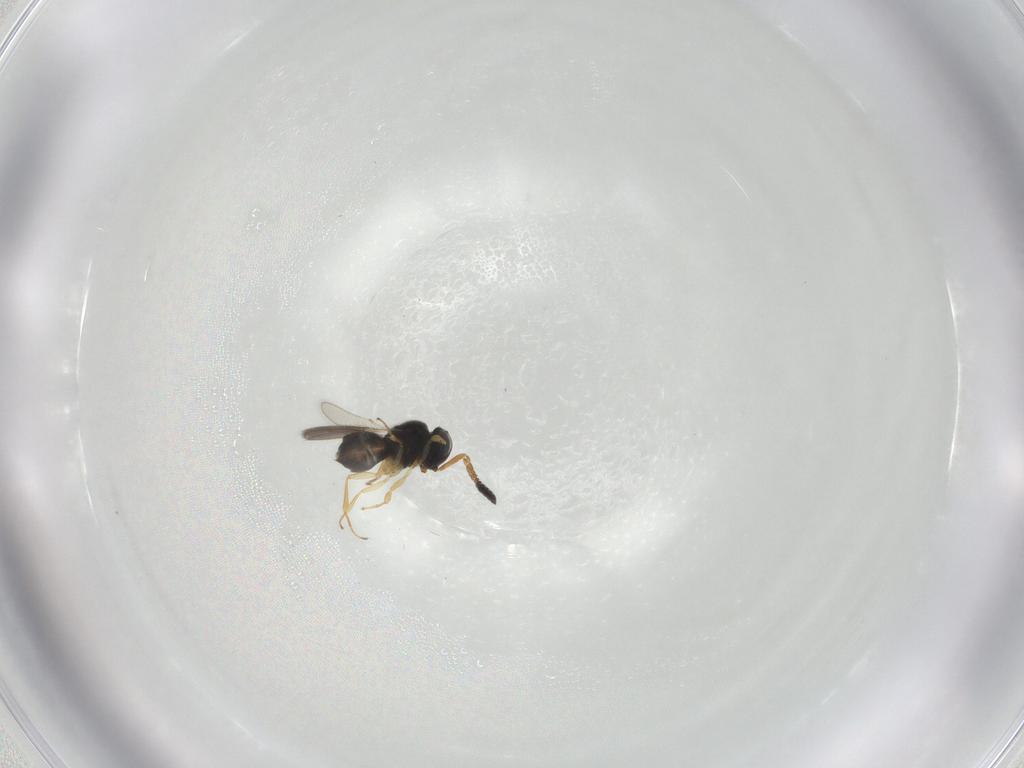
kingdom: Animalia
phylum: Arthropoda
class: Insecta
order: Hymenoptera
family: Scelionidae
